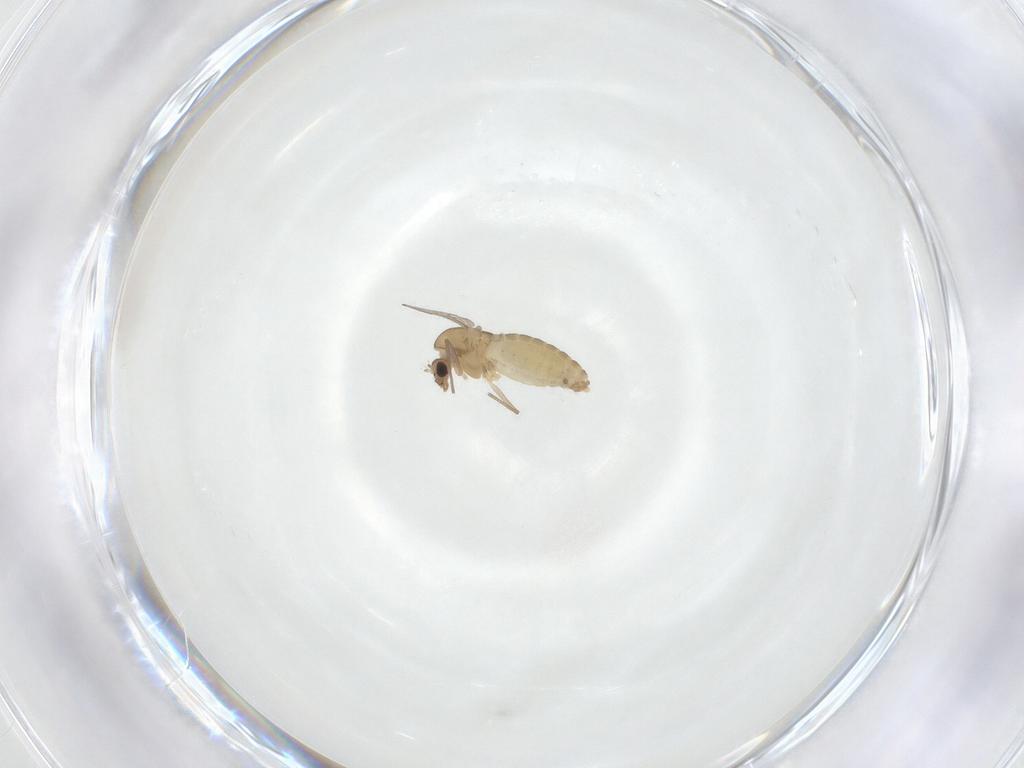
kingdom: Animalia
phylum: Arthropoda
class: Insecta
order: Diptera
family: Chironomidae
